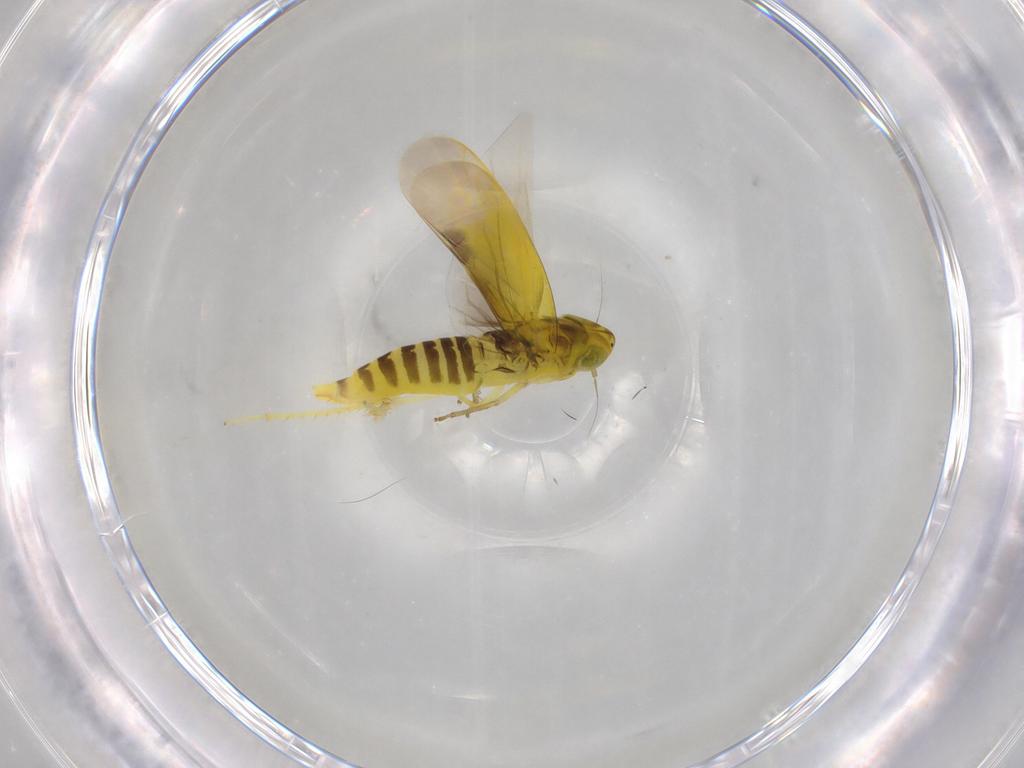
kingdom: Animalia
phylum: Arthropoda
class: Insecta
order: Hemiptera
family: Cicadellidae
